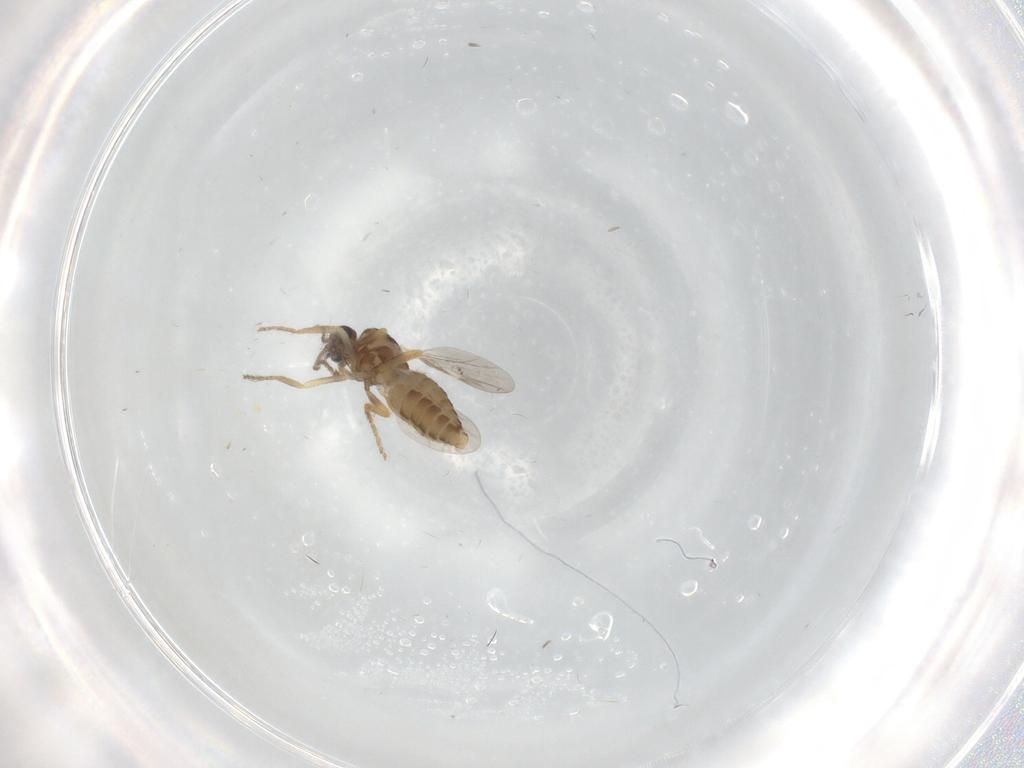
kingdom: Animalia
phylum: Arthropoda
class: Insecta
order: Diptera
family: Ceratopogonidae
